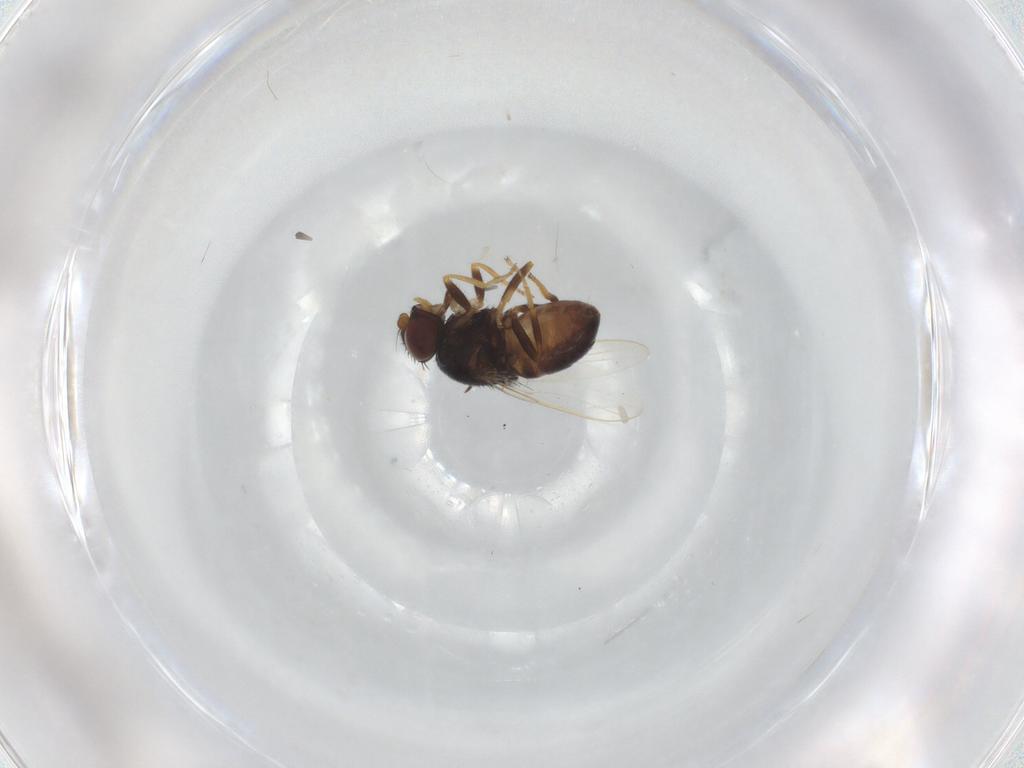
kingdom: Animalia
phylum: Arthropoda
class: Insecta
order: Diptera
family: Chloropidae
